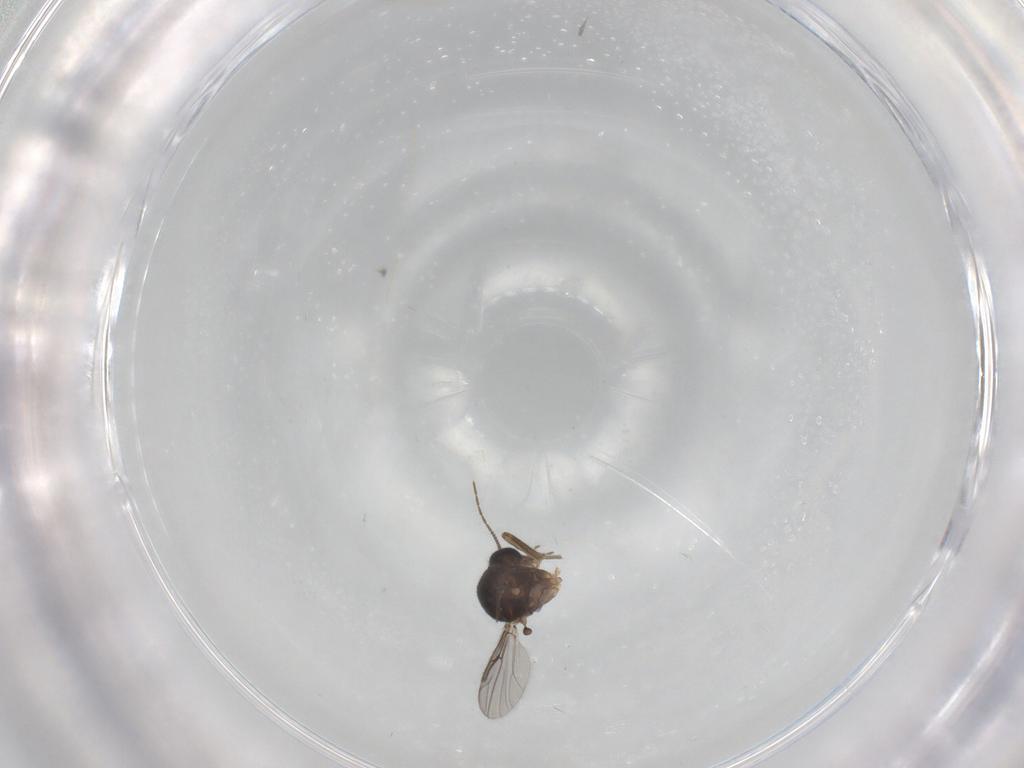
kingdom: Animalia
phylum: Arthropoda
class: Insecta
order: Diptera
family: Ceratopogonidae
